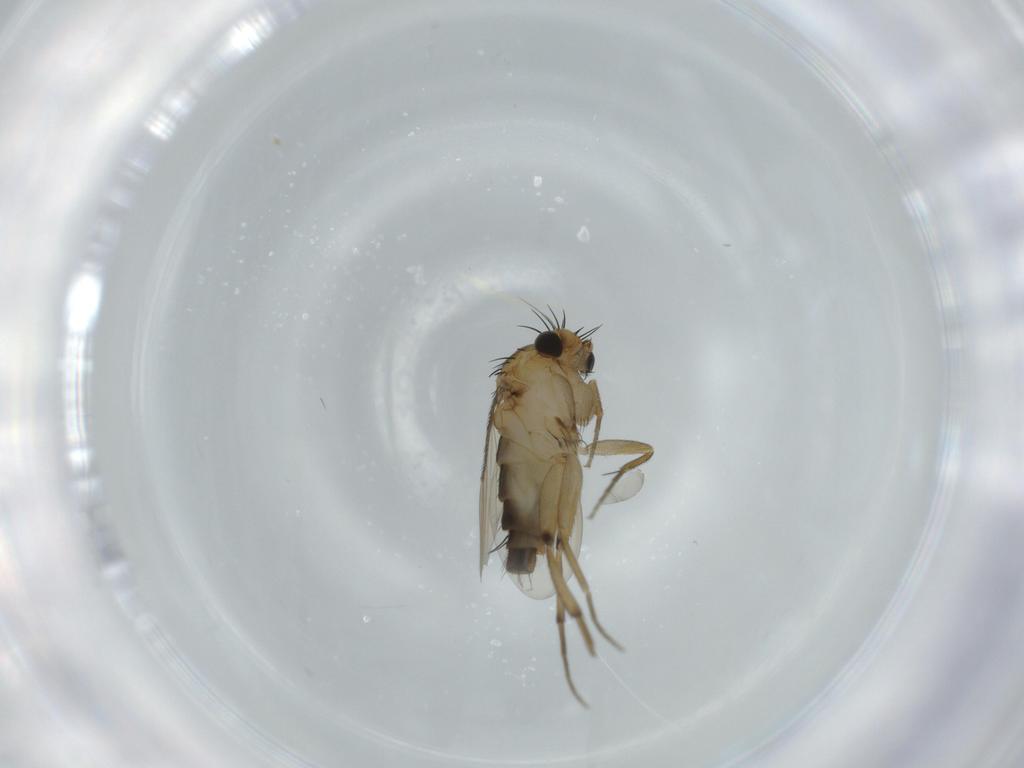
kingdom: Animalia
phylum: Arthropoda
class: Insecta
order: Diptera
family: Phoridae
